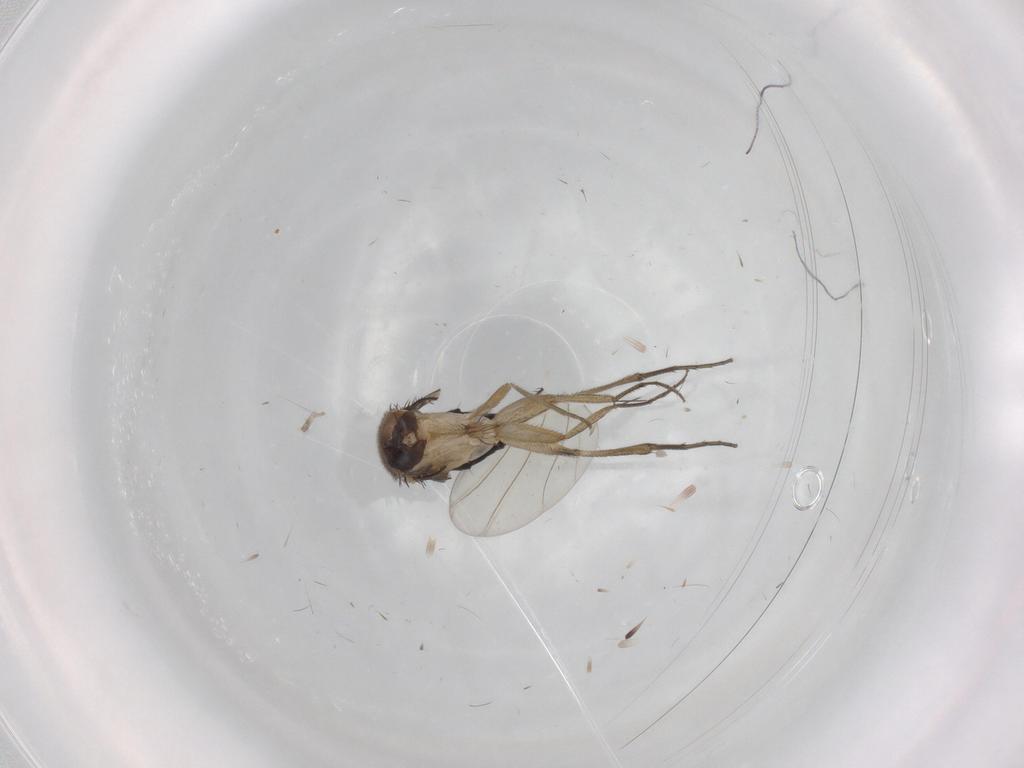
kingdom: Animalia
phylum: Arthropoda
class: Insecta
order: Diptera
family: Phoridae
